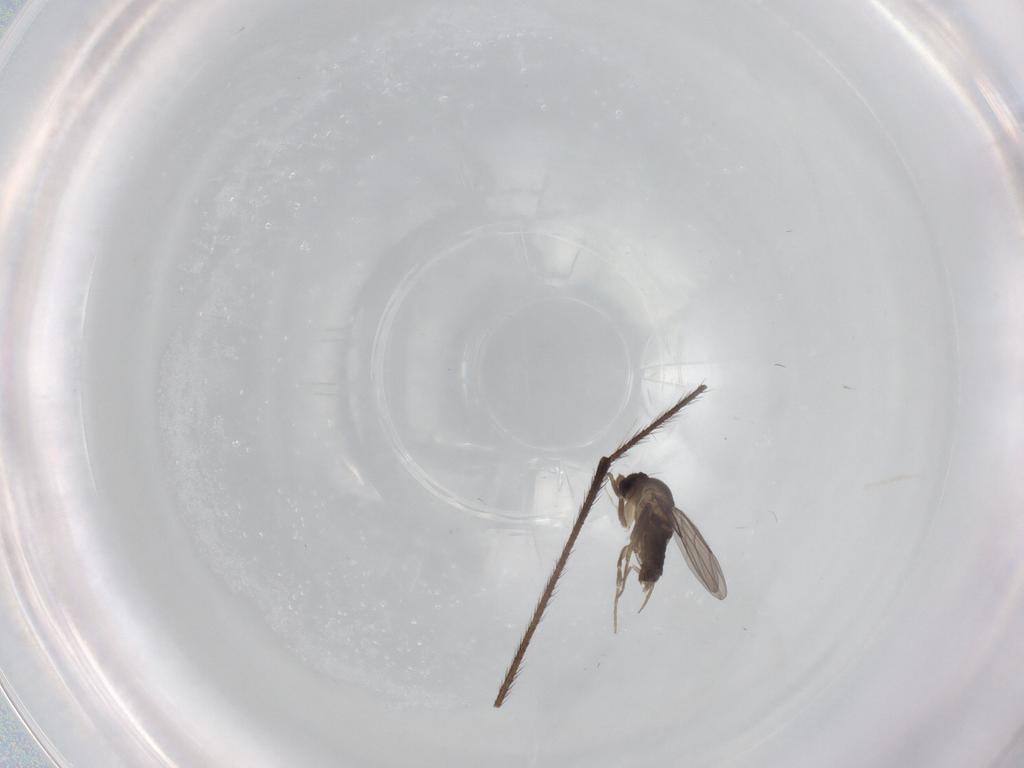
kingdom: Animalia
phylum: Arthropoda
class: Insecta
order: Diptera
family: Limoniidae
